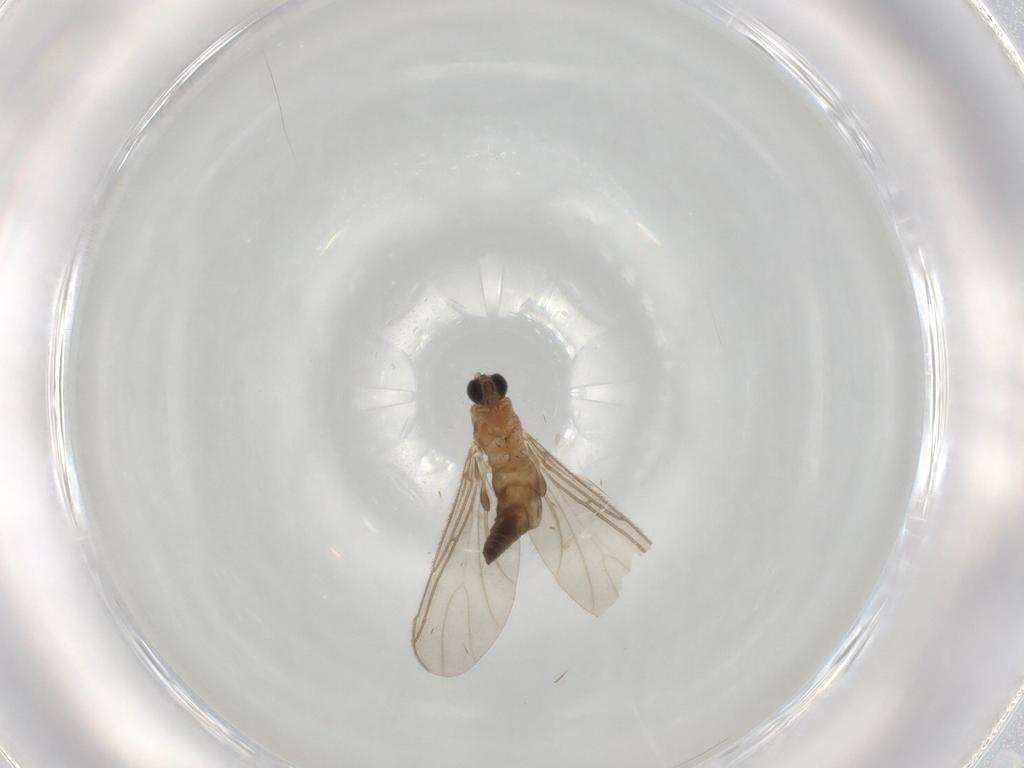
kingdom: Animalia
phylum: Arthropoda
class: Insecta
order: Diptera
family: Sciaridae
